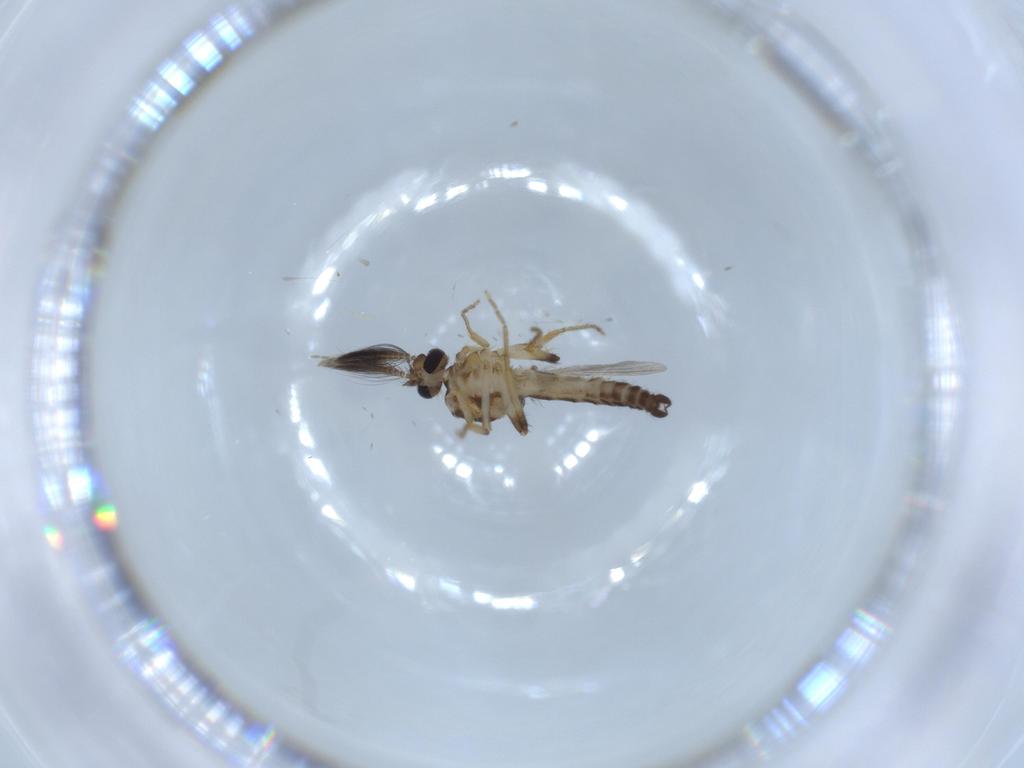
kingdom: Animalia
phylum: Arthropoda
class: Insecta
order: Diptera
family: Ceratopogonidae
